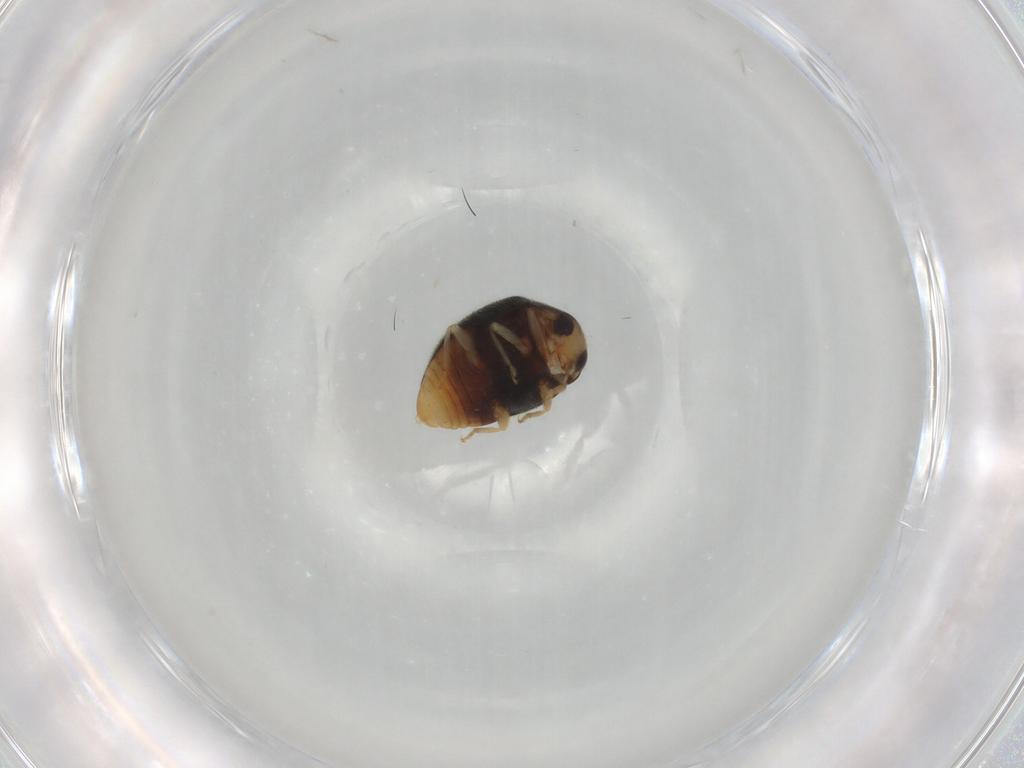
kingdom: Animalia
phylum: Arthropoda
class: Insecta
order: Coleoptera
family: Coccinellidae
